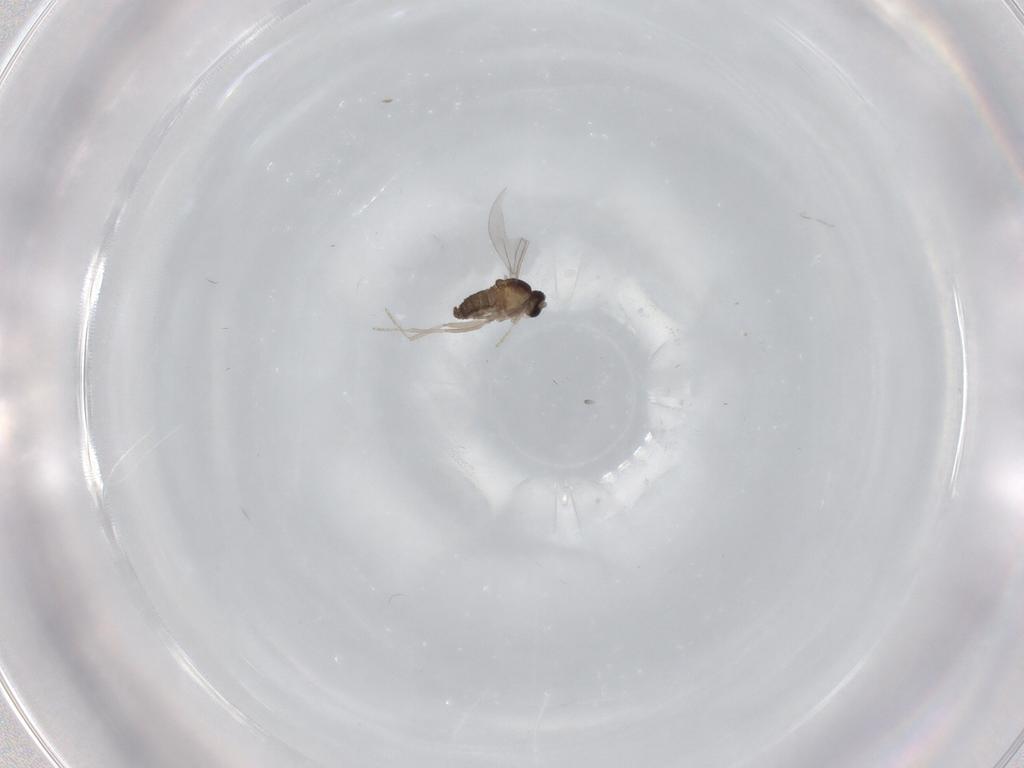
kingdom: Animalia
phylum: Arthropoda
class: Insecta
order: Diptera
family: Cecidomyiidae
